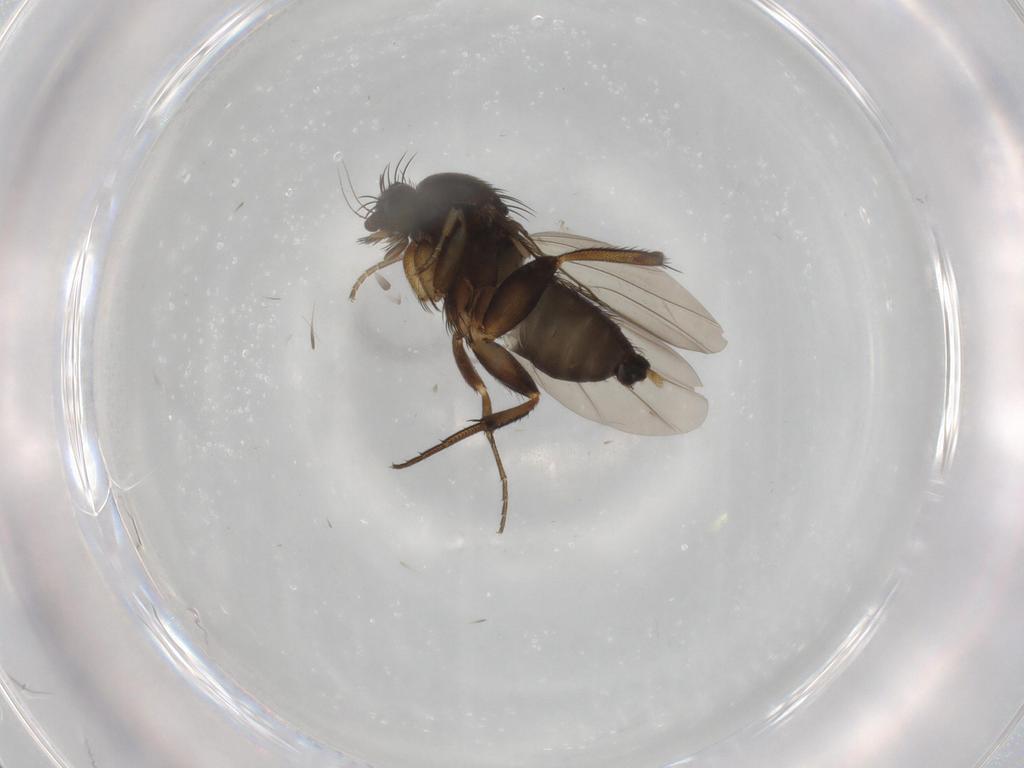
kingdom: Animalia
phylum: Arthropoda
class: Insecta
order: Diptera
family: Phoridae
